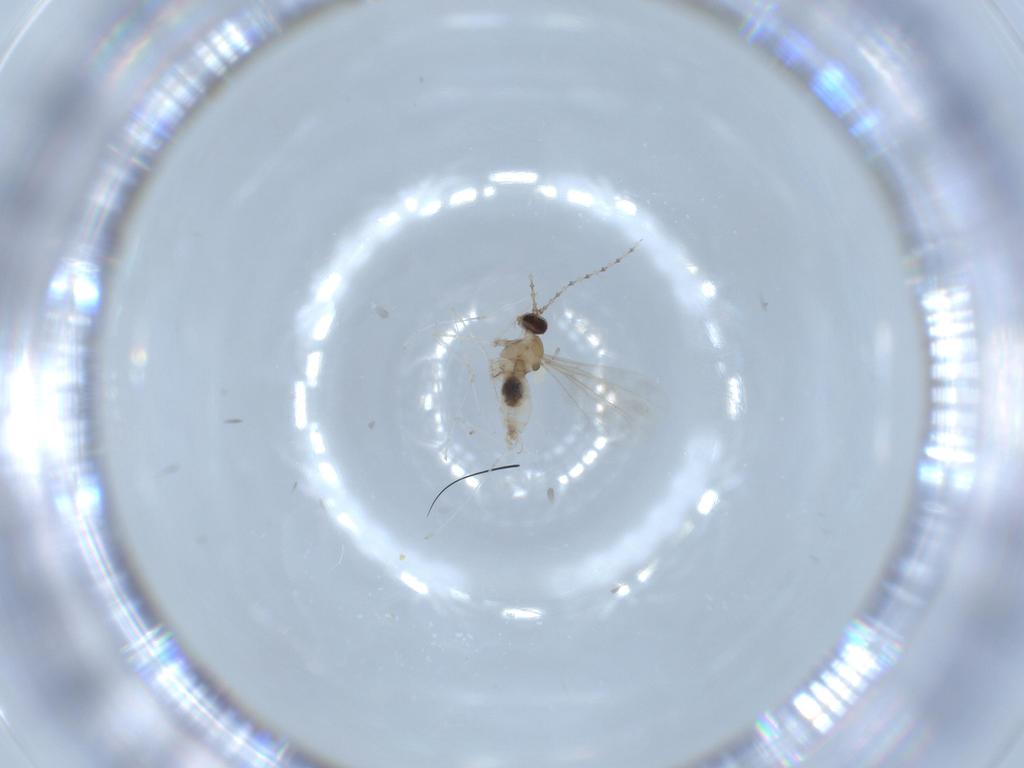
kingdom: Animalia
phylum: Arthropoda
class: Insecta
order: Diptera
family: Cecidomyiidae
